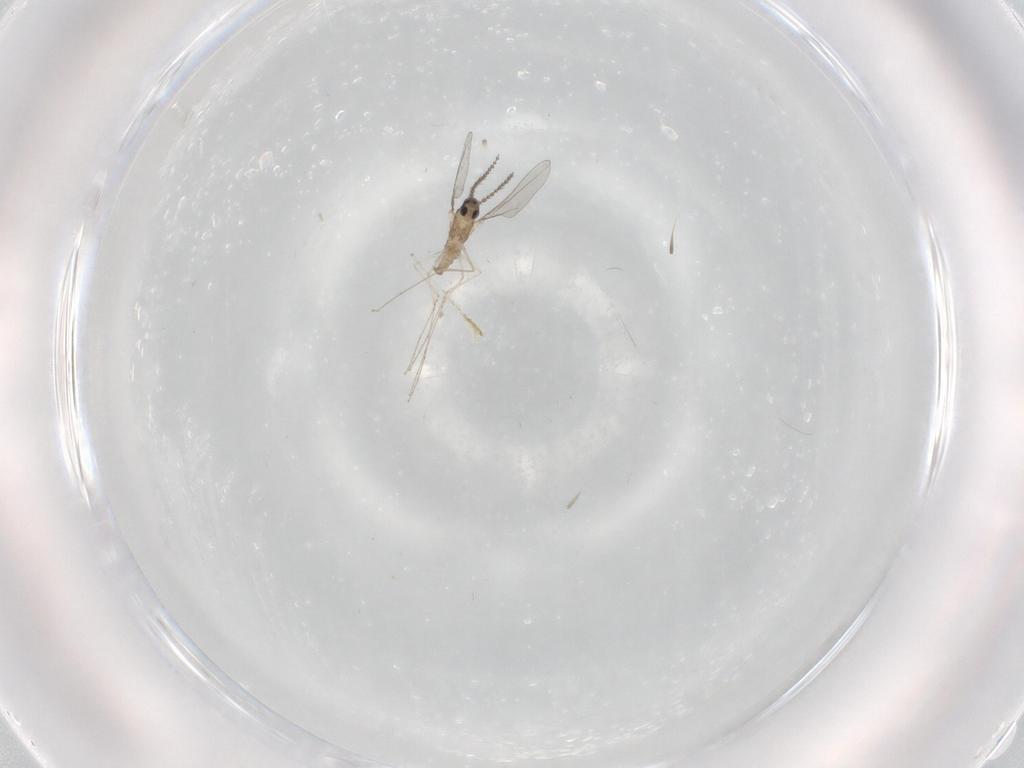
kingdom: Animalia
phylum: Arthropoda
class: Insecta
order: Diptera
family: Cecidomyiidae
